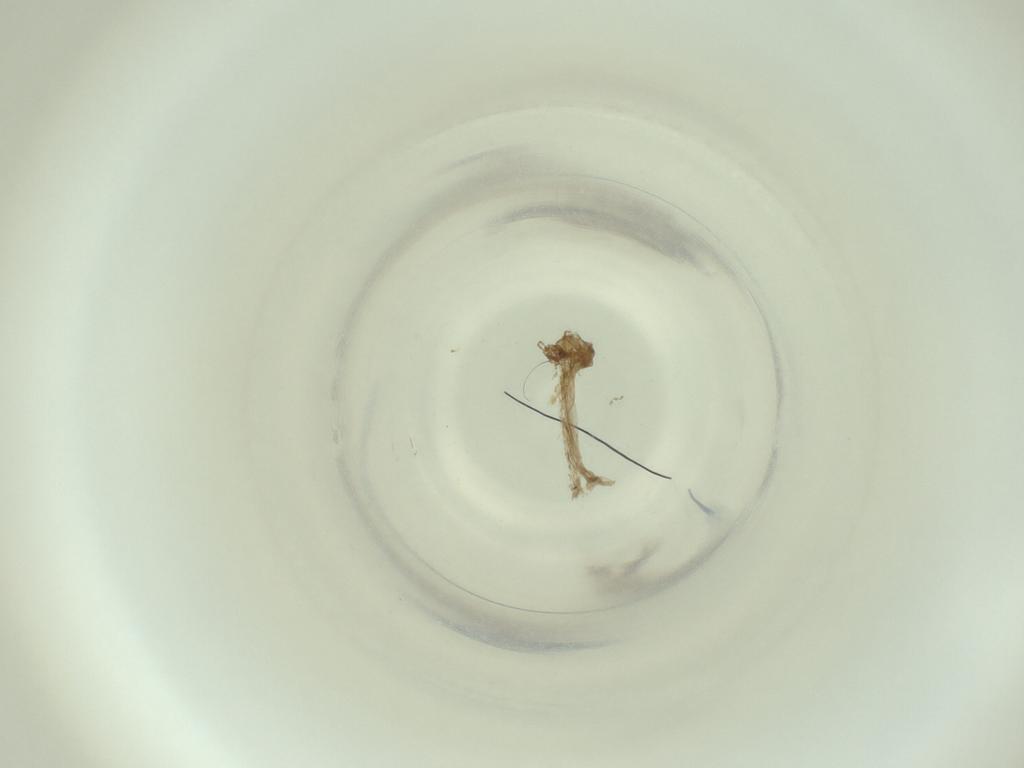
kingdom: Animalia
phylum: Arthropoda
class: Insecta
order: Diptera
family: Cecidomyiidae
